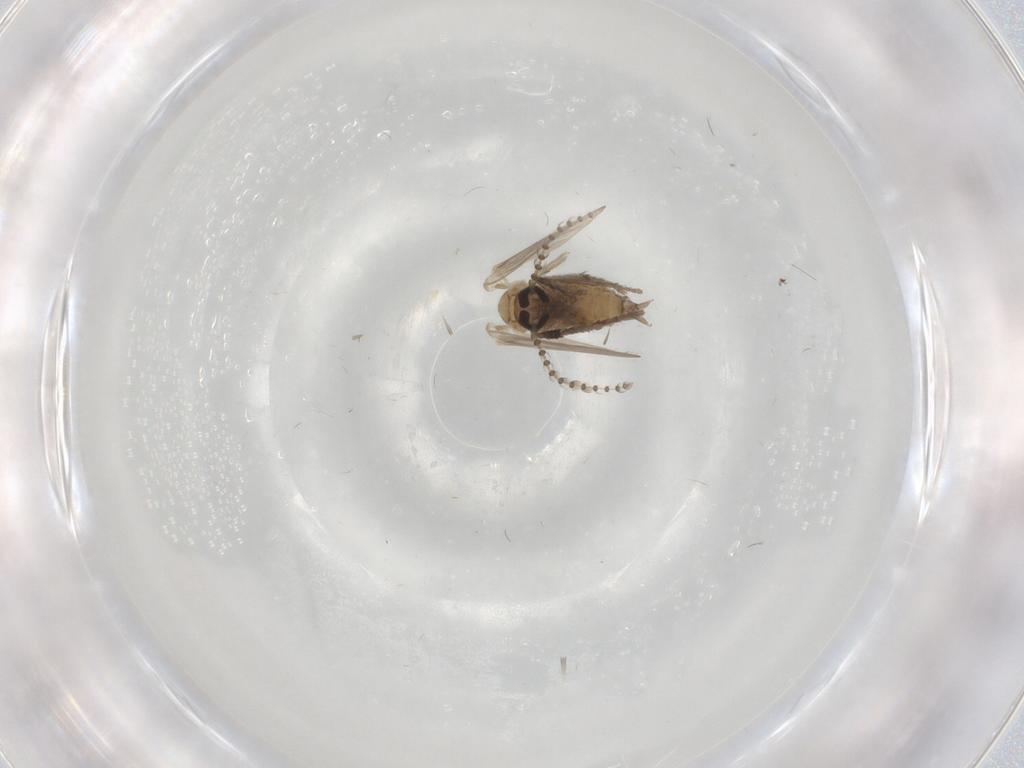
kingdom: Animalia
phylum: Arthropoda
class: Insecta
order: Diptera
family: Psychodidae
